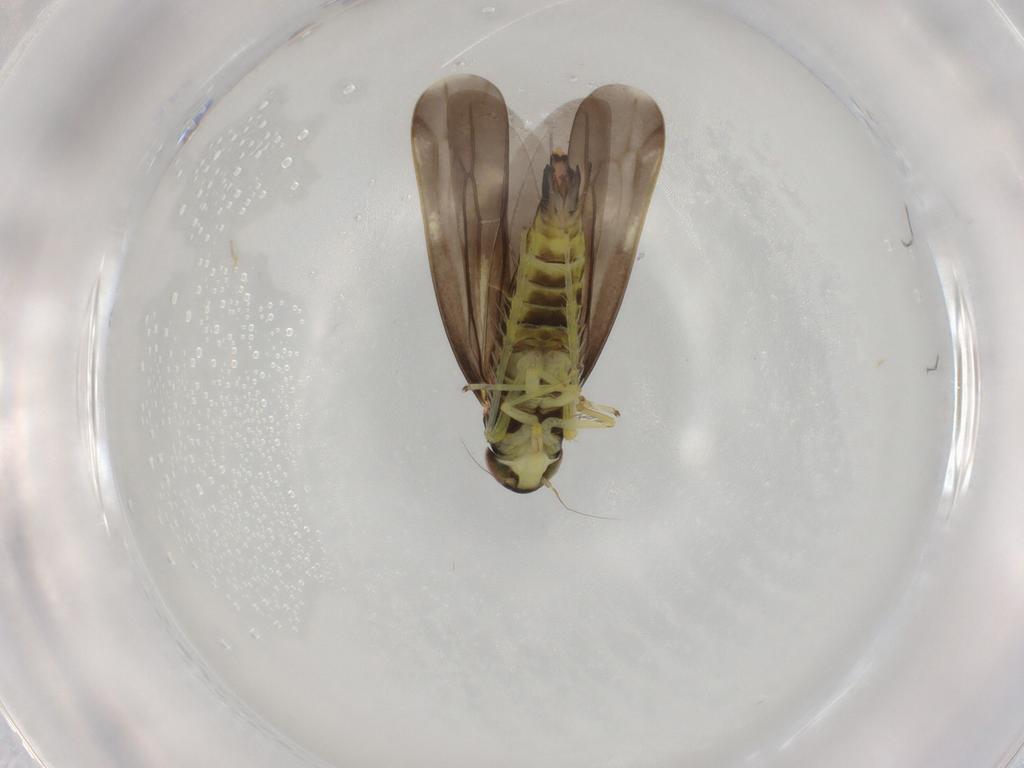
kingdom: Animalia
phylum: Arthropoda
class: Insecta
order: Hemiptera
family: Cicadellidae
